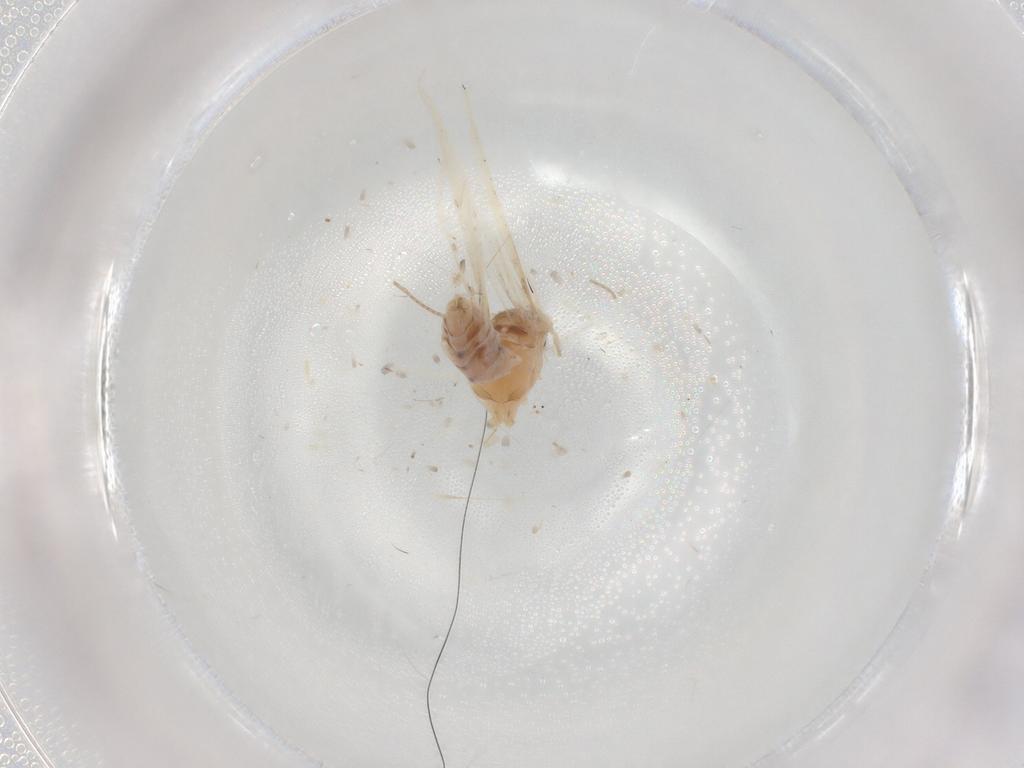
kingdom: Animalia
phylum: Arthropoda
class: Insecta
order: Lepidoptera
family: Bucculatricidae
